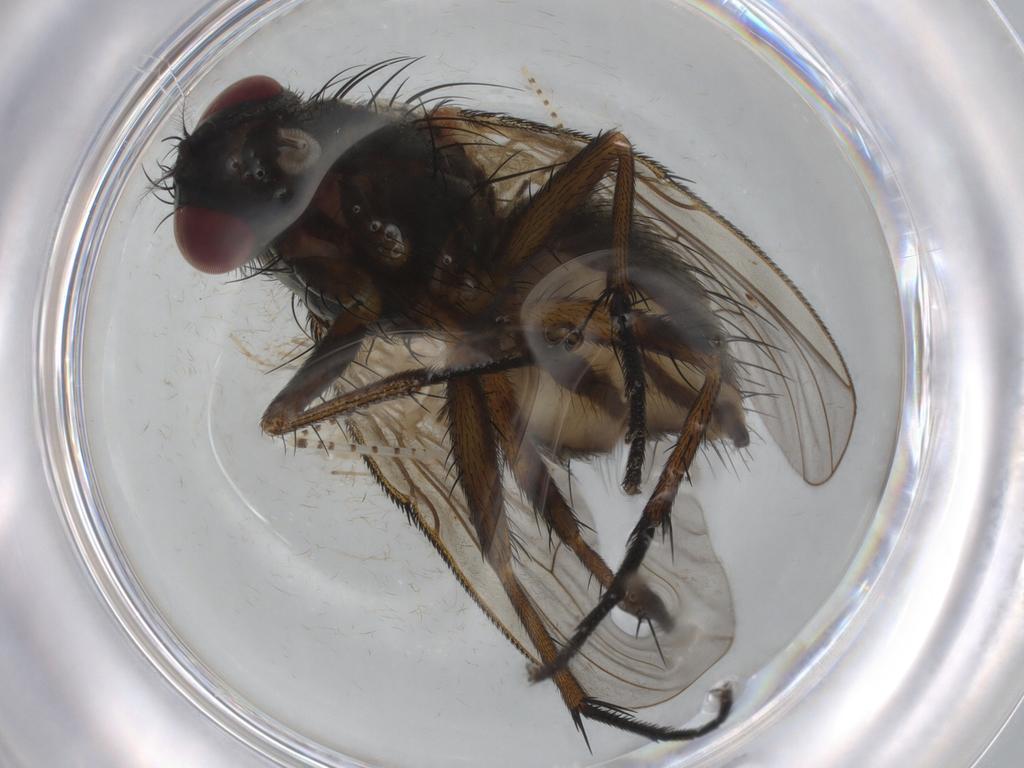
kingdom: Animalia
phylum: Arthropoda
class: Insecta
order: Diptera
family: Muscidae
